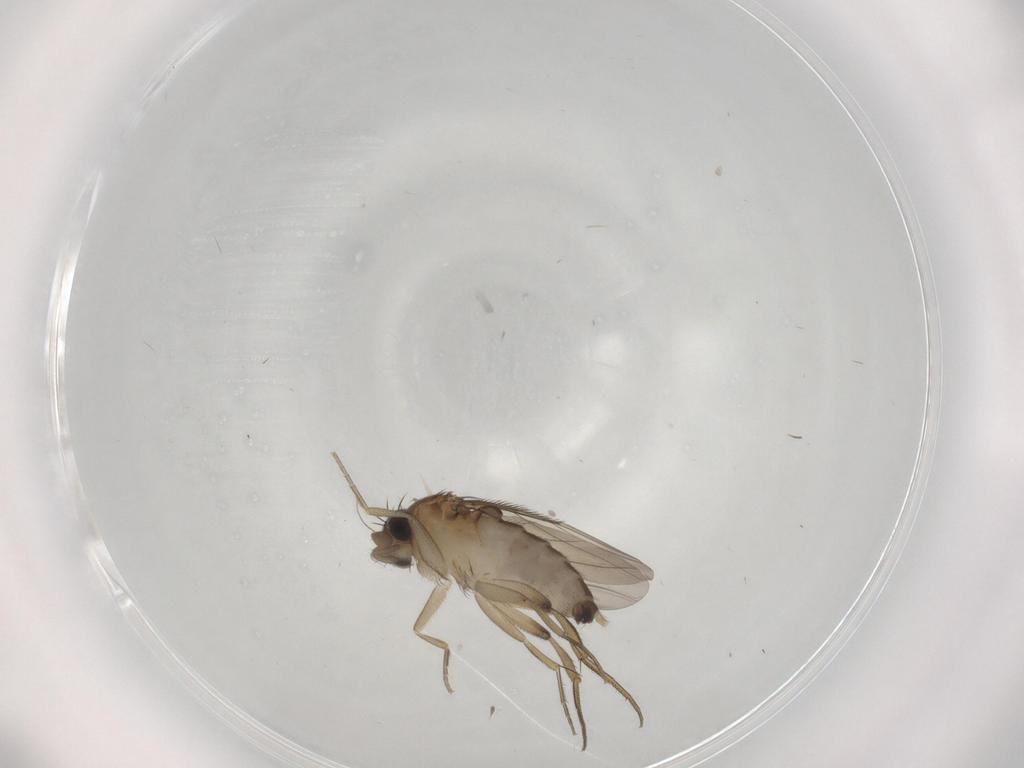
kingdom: Animalia
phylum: Arthropoda
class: Insecta
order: Diptera
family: Phoridae
